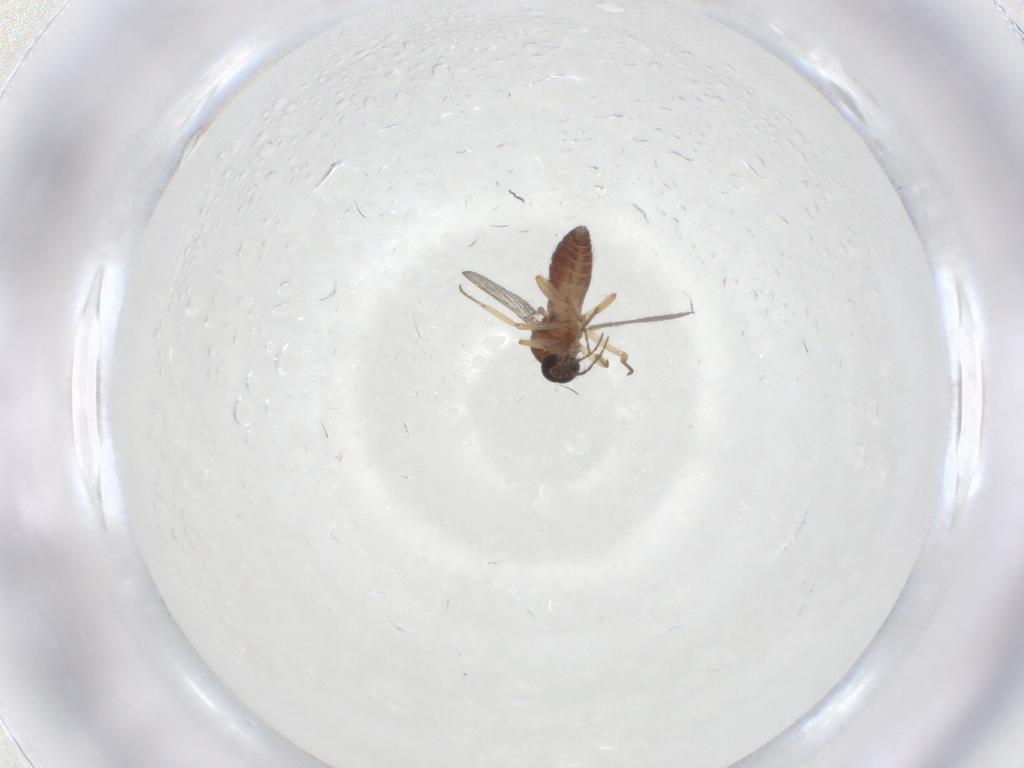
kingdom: Animalia
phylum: Arthropoda
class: Insecta
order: Diptera
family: Ceratopogonidae
